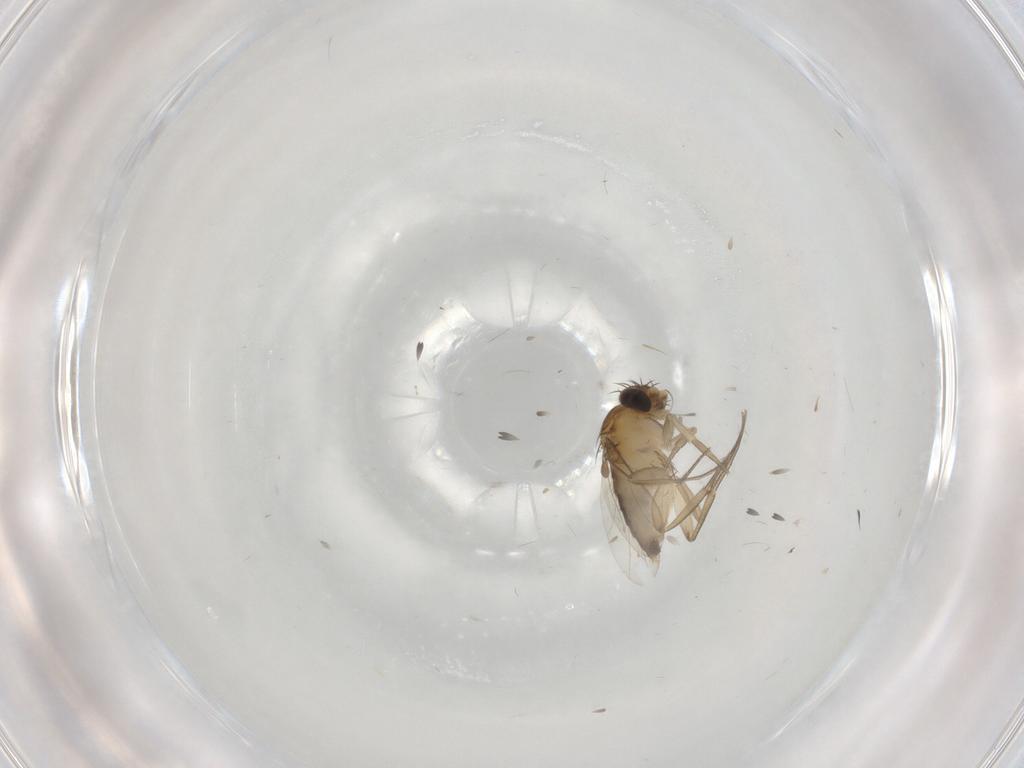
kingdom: Animalia
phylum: Arthropoda
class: Insecta
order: Diptera
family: Phoridae
